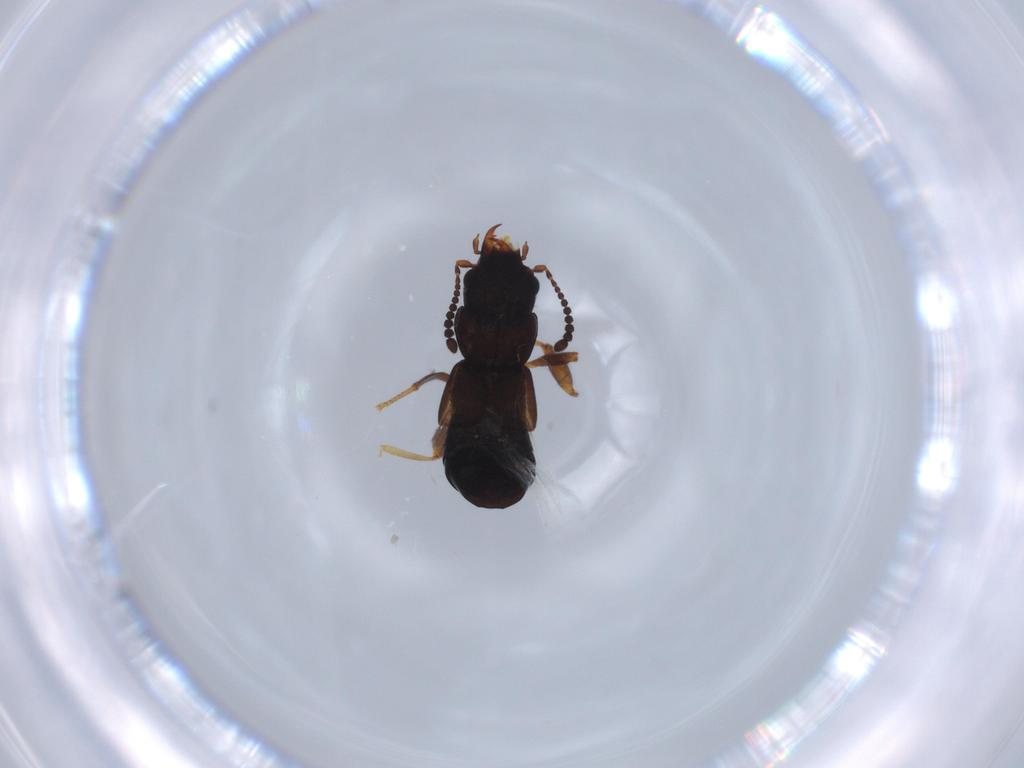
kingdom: Animalia
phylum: Arthropoda
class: Insecta
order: Coleoptera
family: Staphylinidae
